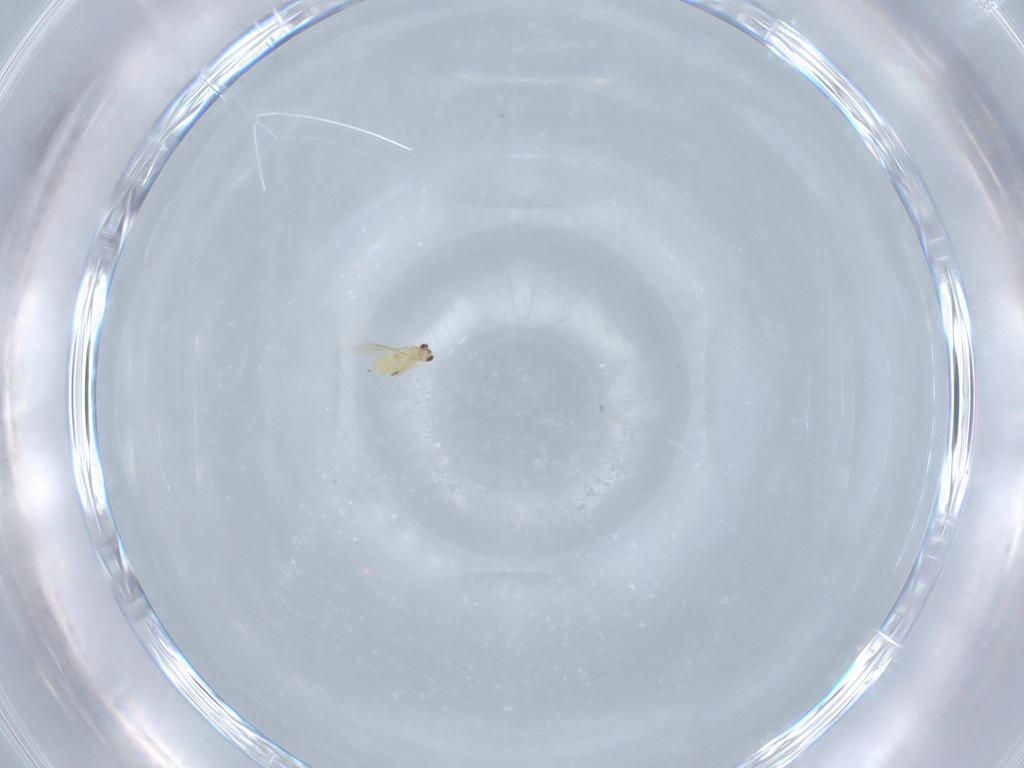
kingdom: Animalia
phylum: Arthropoda
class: Insecta
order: Hymenoptera
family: Eulophidae
